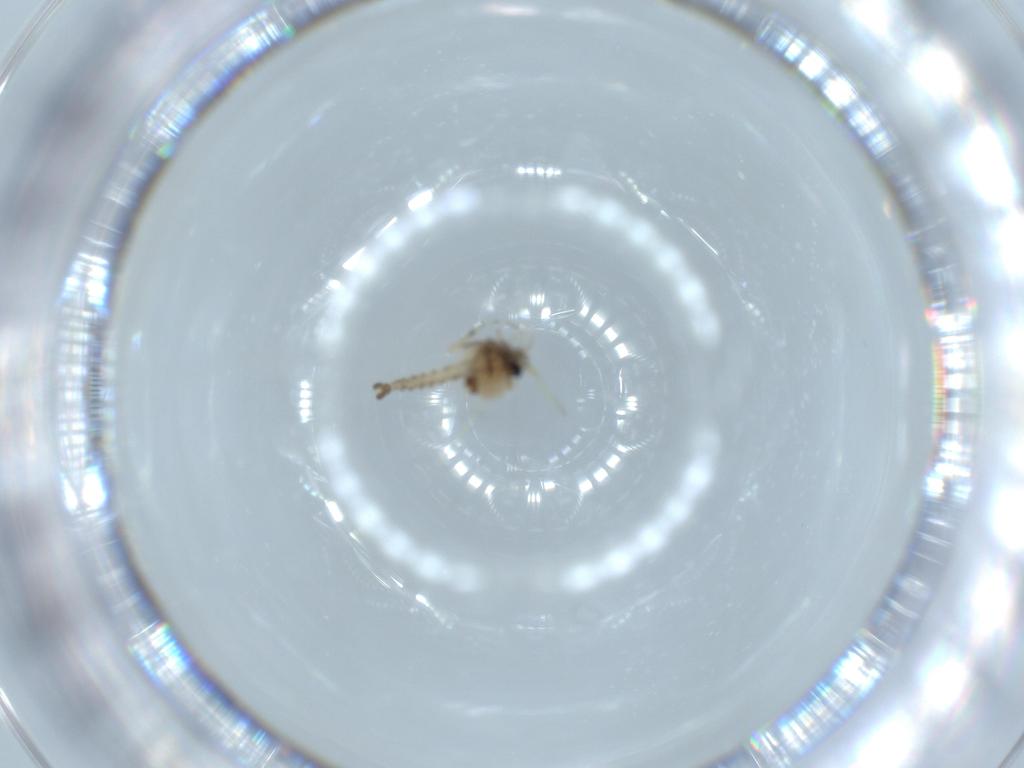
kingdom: Animalia
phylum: Arthropoda
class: Insecta
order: Diptera
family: Ceratopogonidae
